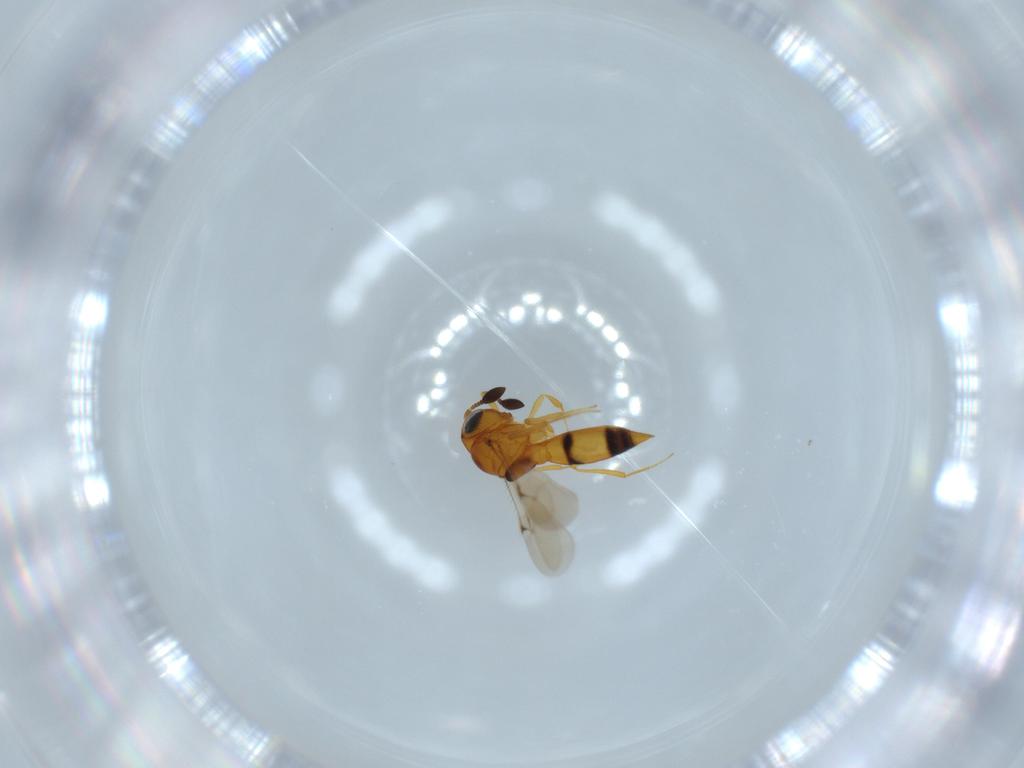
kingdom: Animalia
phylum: Arthropoda
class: Insecta
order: Hymenoptera
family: Scelionidae
